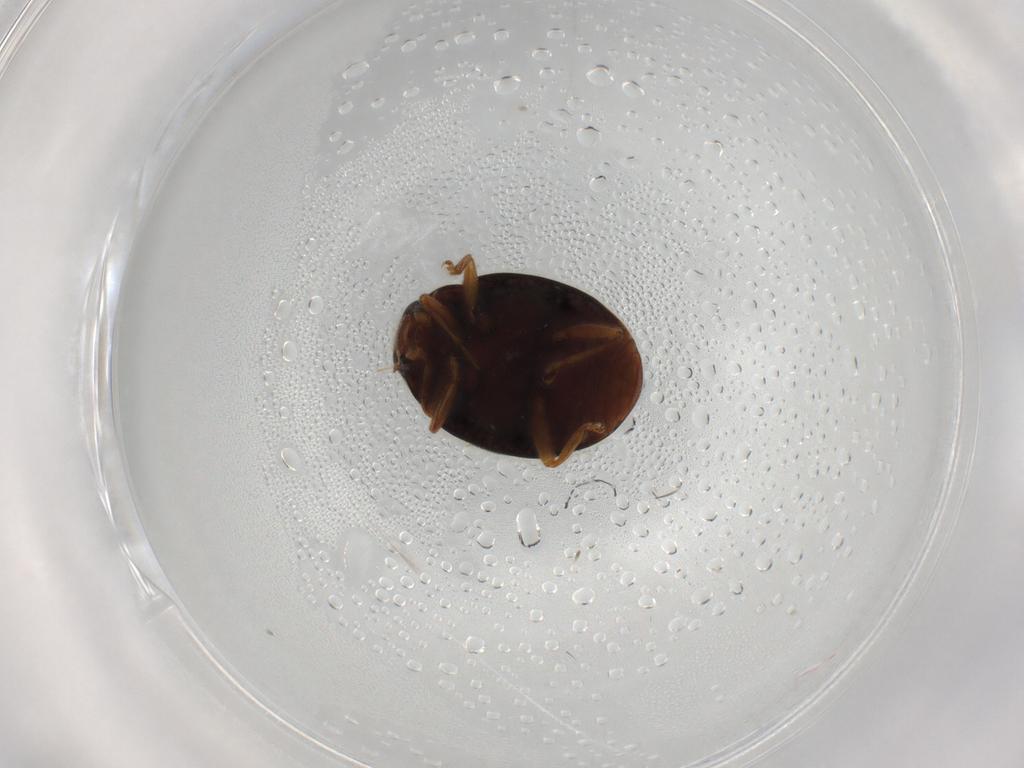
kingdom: Animalia
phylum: Arthropoda
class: Insecta
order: Coleoptera
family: Coccinellidae
